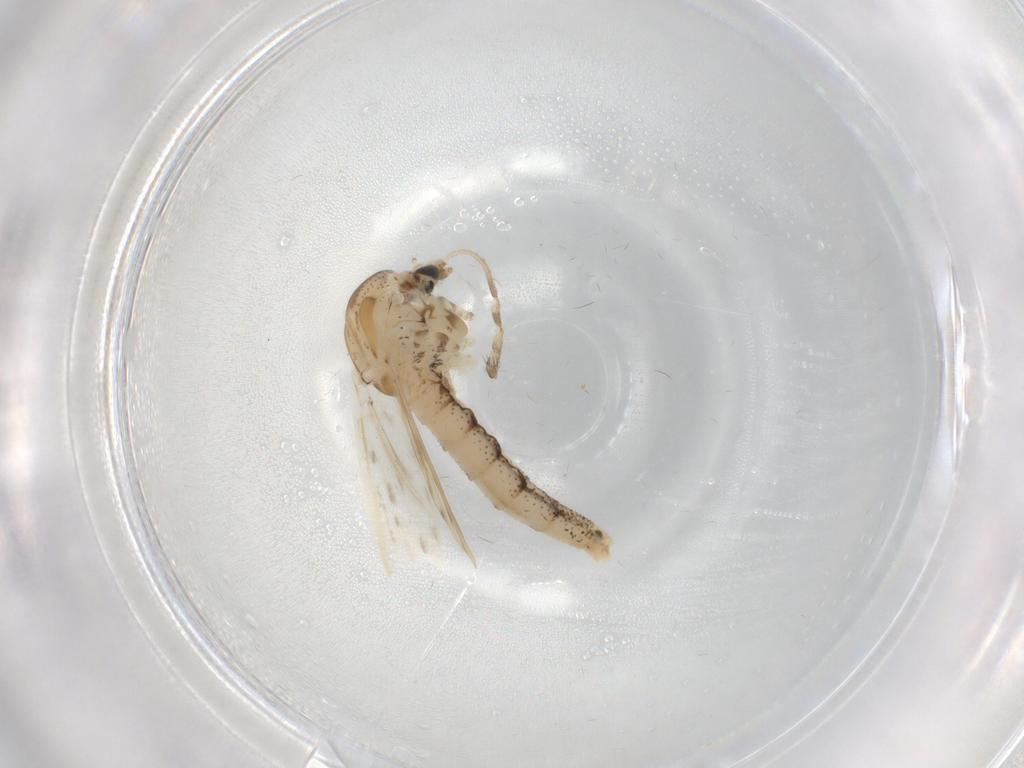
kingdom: Animalia
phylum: Arthropoda
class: Insecta
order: Diptera
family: Chaoboridae
